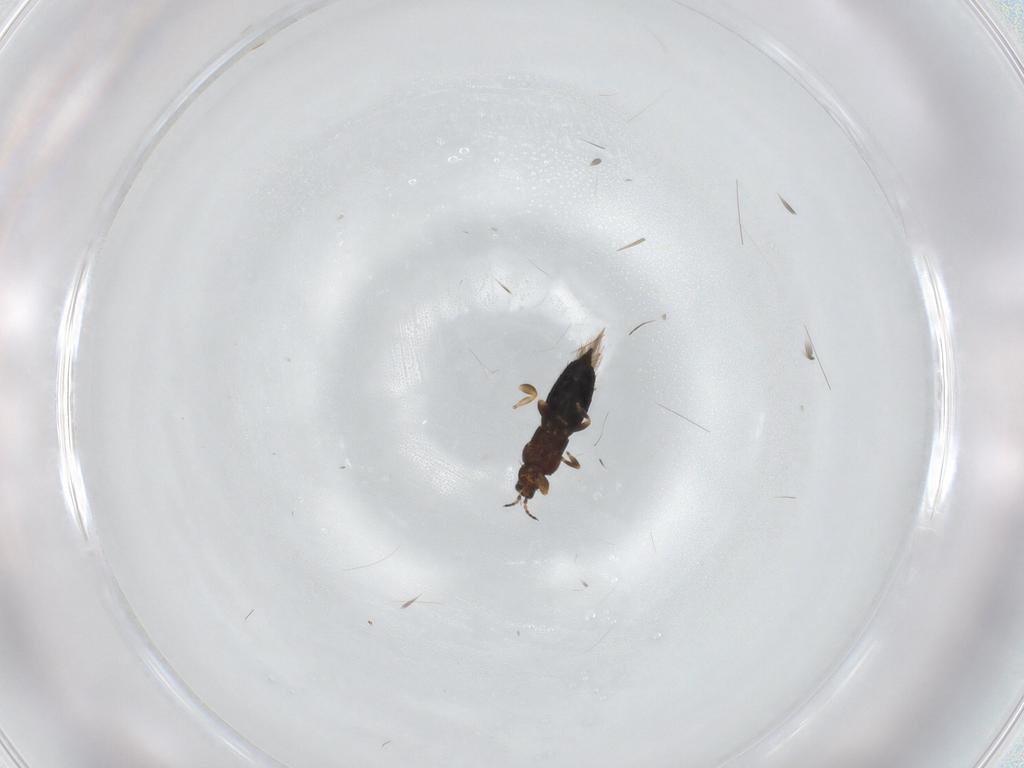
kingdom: Animalia
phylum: Arthropoda
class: Insecta
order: Thysanoptera
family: Thripidae
